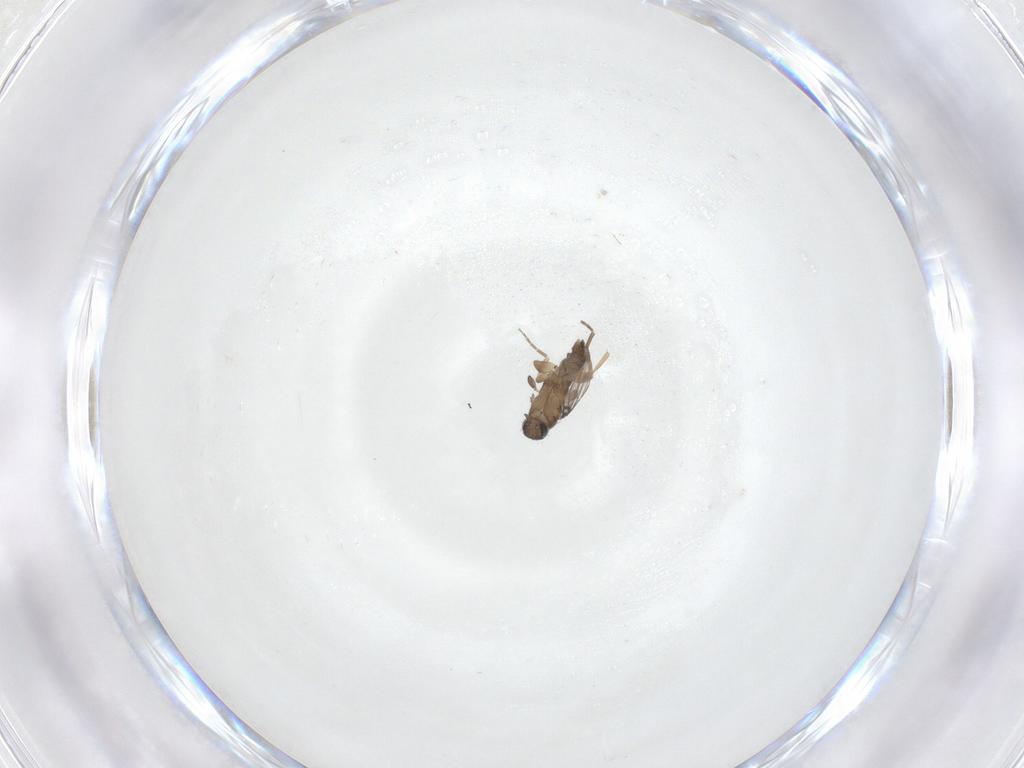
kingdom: Animalia
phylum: Arthropoda
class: Insecta
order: Diptera
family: Phoridae
